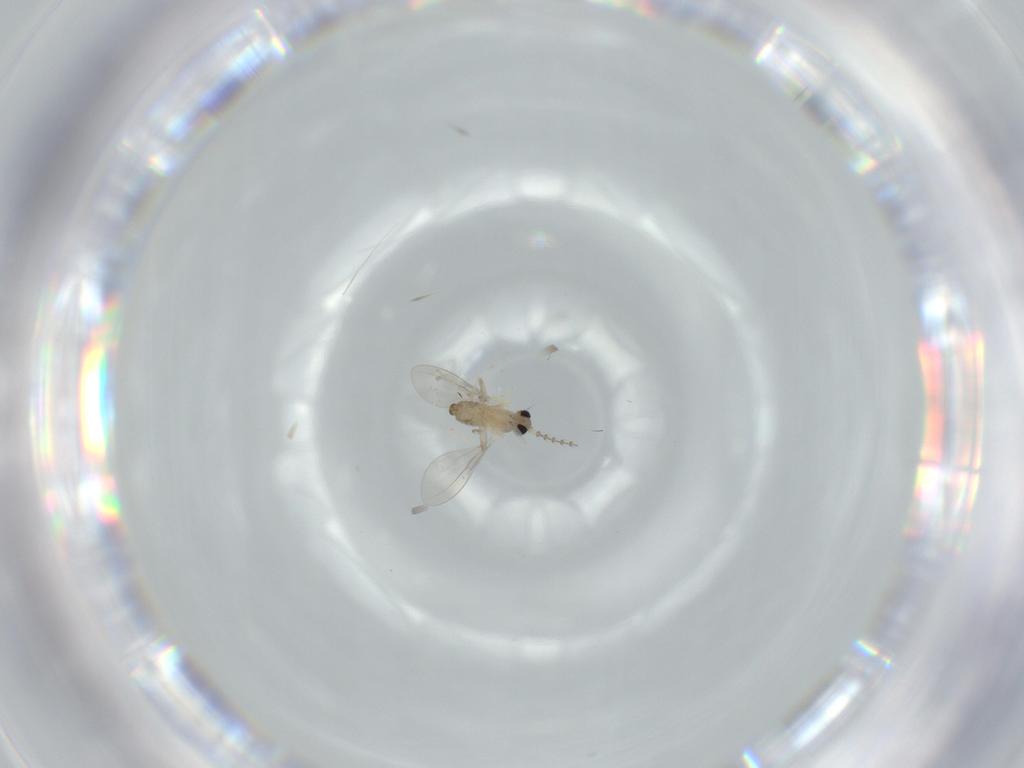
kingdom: Animalia
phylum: Arthropoda
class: Insecta
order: Diptera
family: Cecidomyiidae
